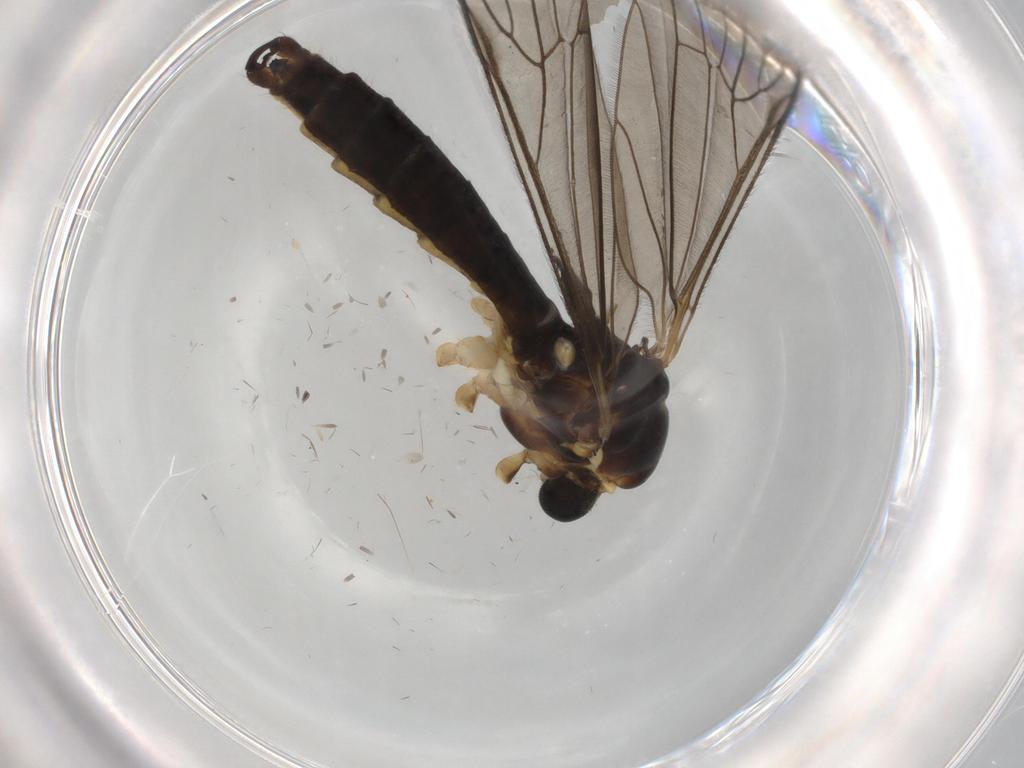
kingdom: Animalia
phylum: Arthropoda
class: Insecta
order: Diptera
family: Phoridae
